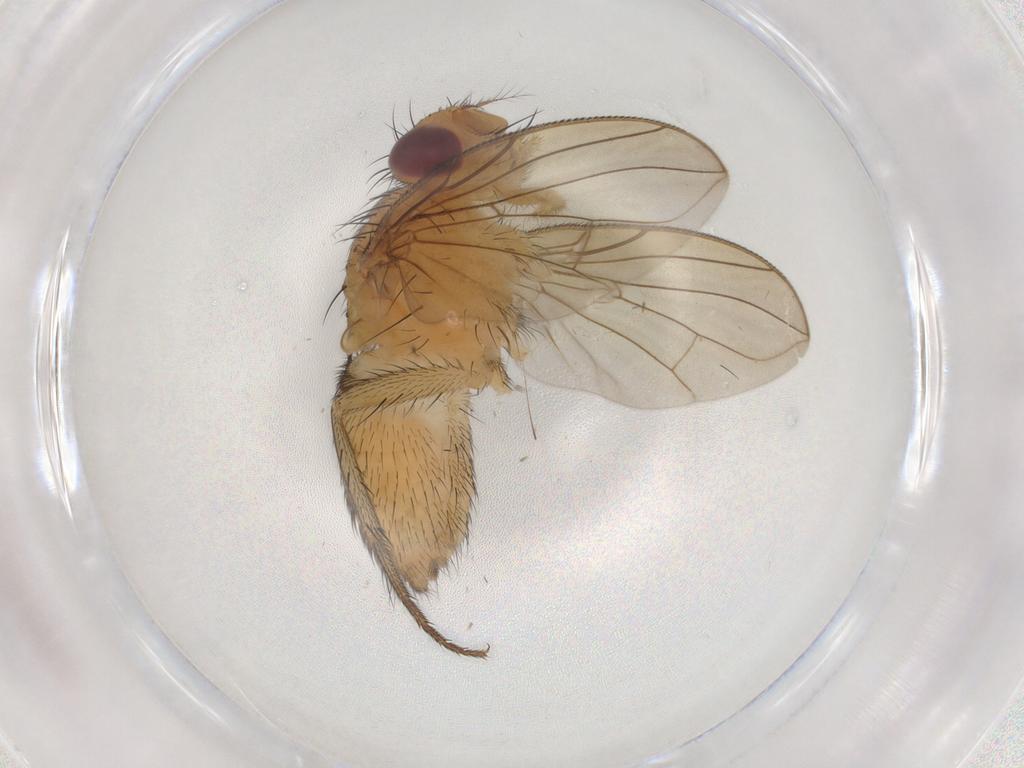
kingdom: Animalia
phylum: Arthropoda
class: Insecta
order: Diptera
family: Calliphoridae
